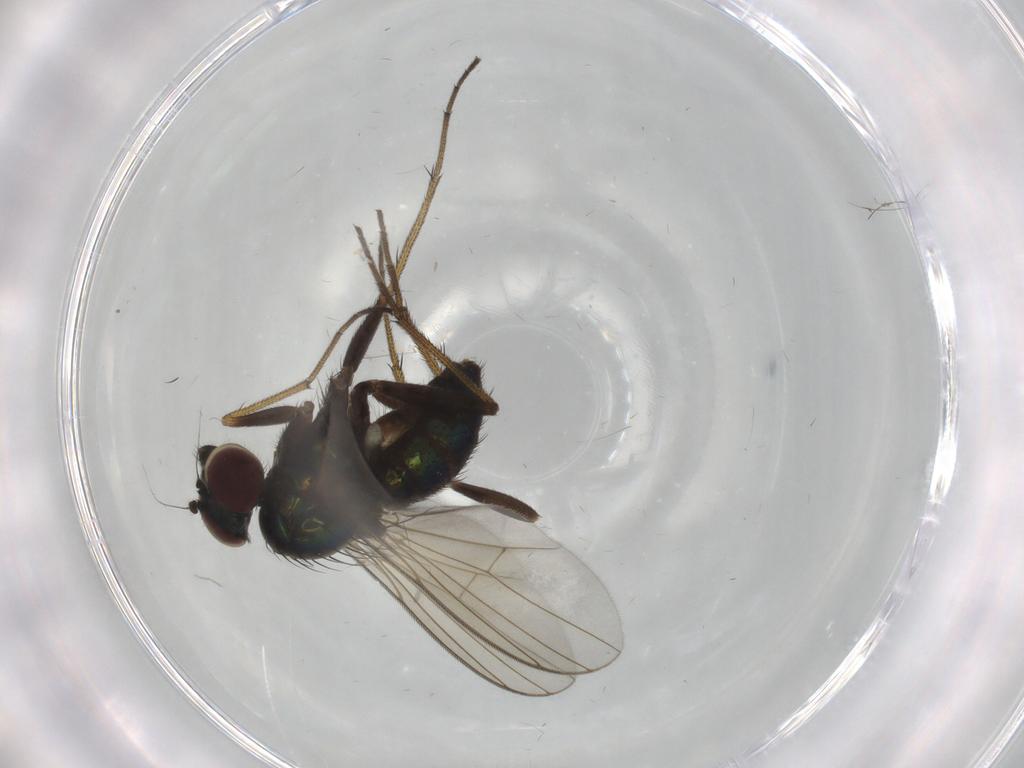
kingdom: Animalia
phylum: Arthropoda
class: Insecta
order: Diptera
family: Dolichopodidae
